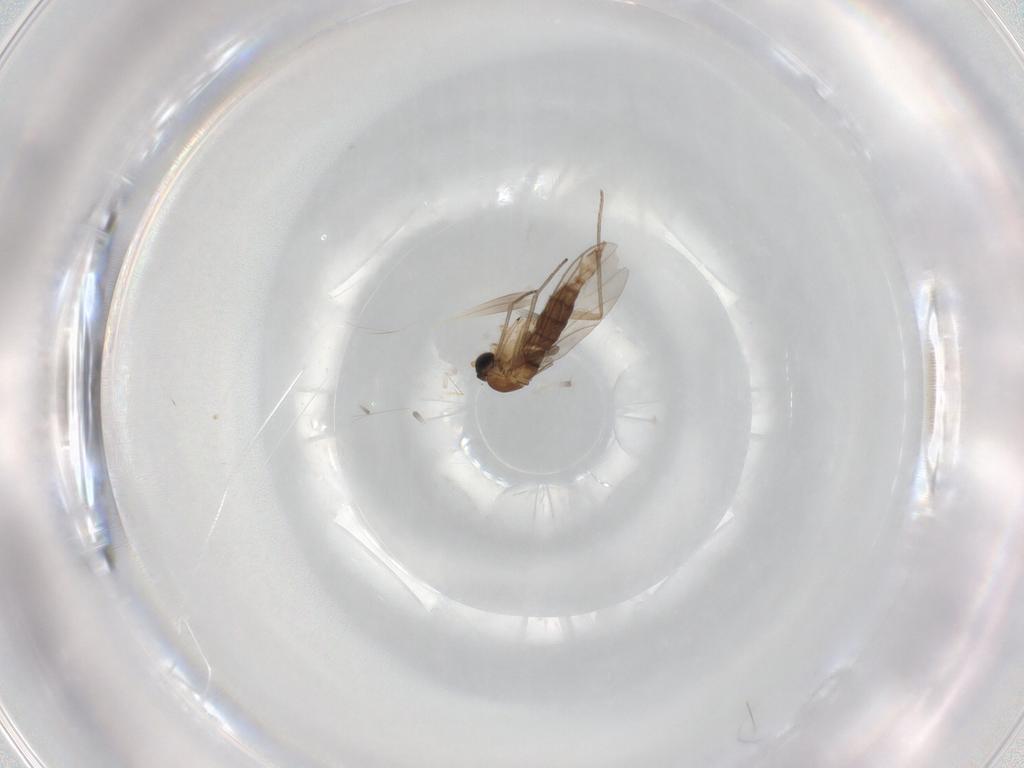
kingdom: Animalia
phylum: Arthropoda
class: Insecta
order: Diptera
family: Sciaridae
